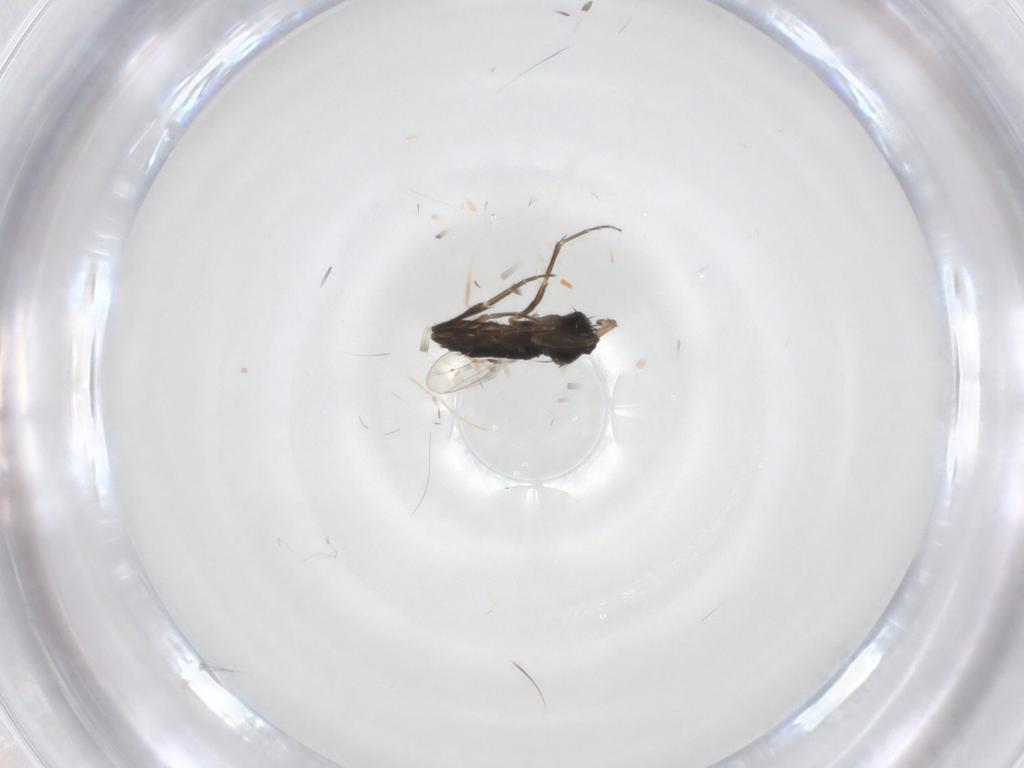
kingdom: Animalia
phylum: Arthropoda
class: Insecta
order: Diptera
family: Phoridae
